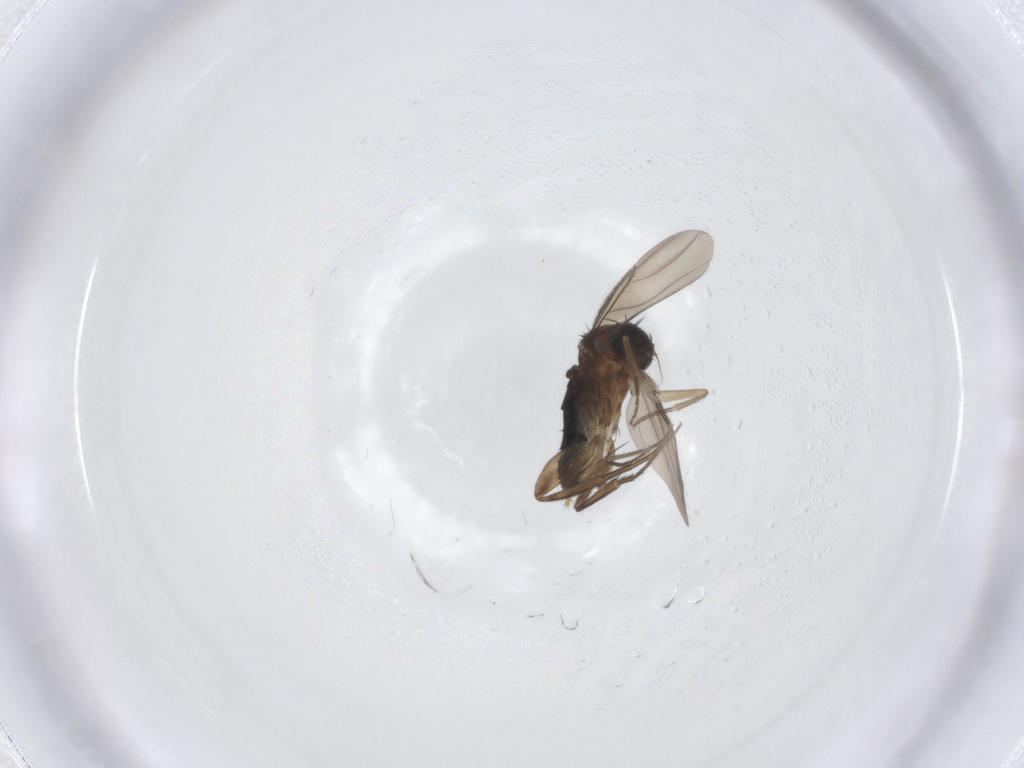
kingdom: Animalia
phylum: Arthropoda
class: Insecta
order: Diptera
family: Phoridae
